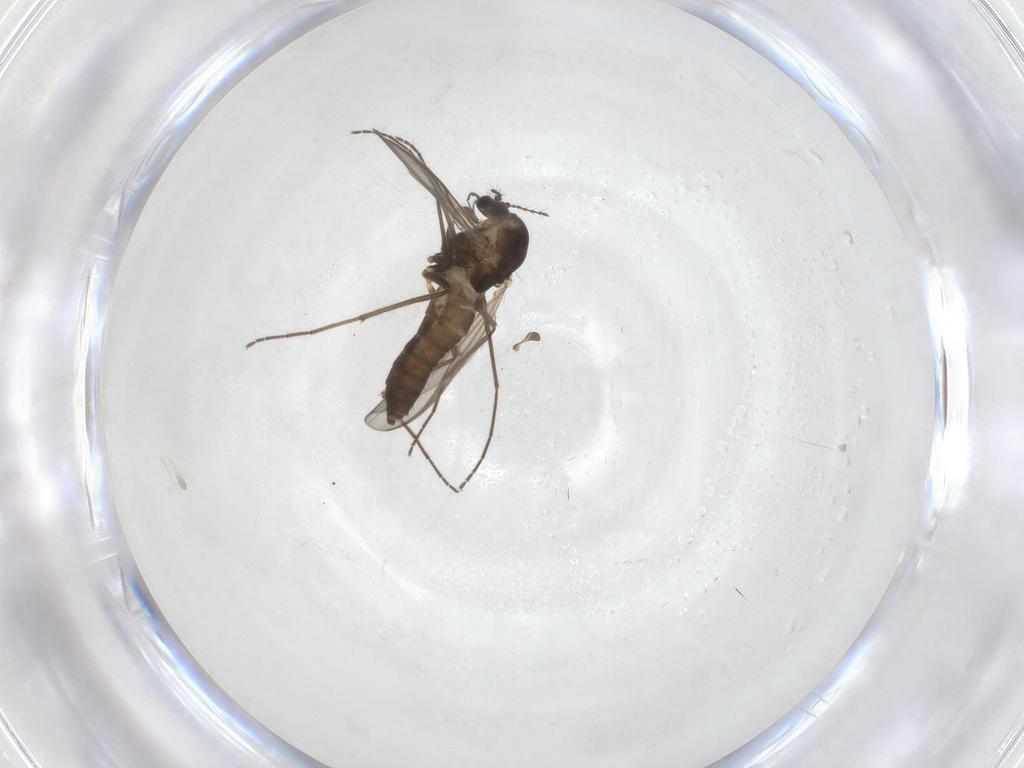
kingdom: Animalia
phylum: Arthropoda
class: Insecta
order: Diptera
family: Chironomidae
